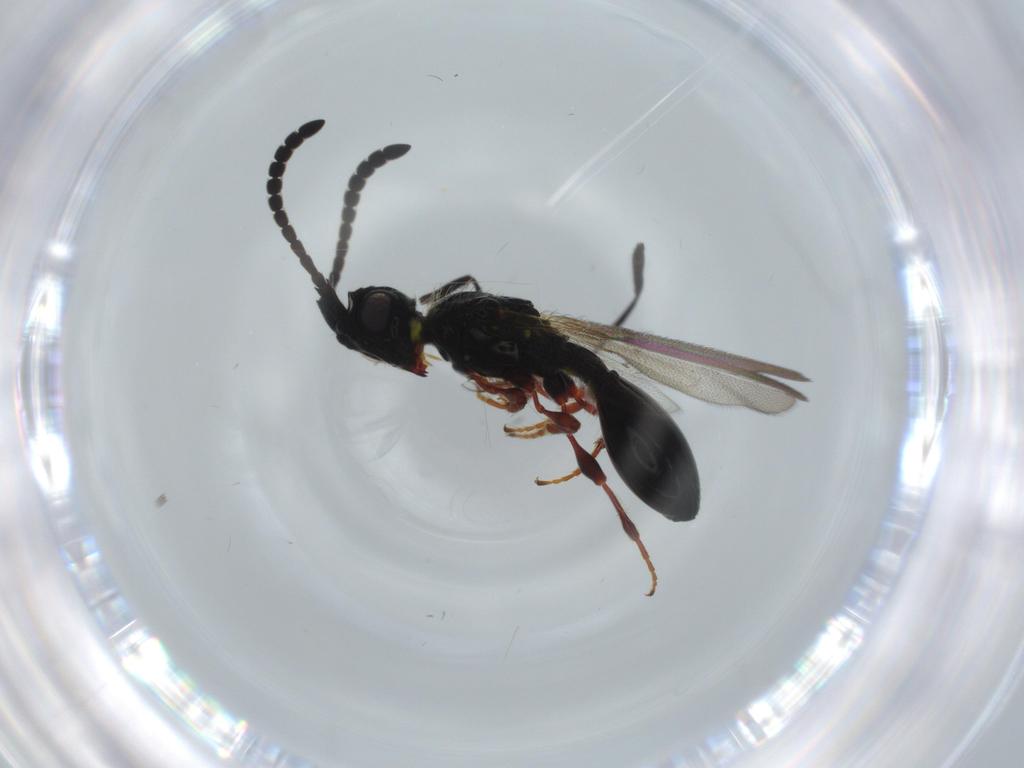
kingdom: Animalia
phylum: Arthropoda
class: Insecta
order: Hymenoptera
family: Diapriidae
